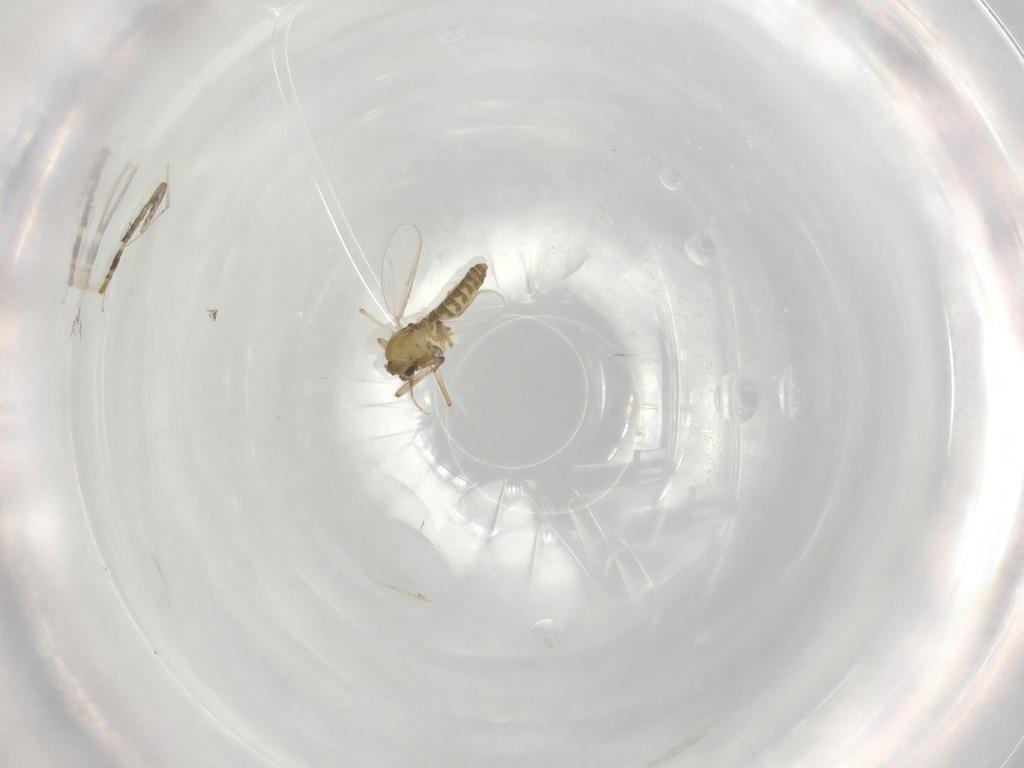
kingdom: Animalia
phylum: Arthropoda
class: Insecta
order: Diptera
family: Chironomidae
